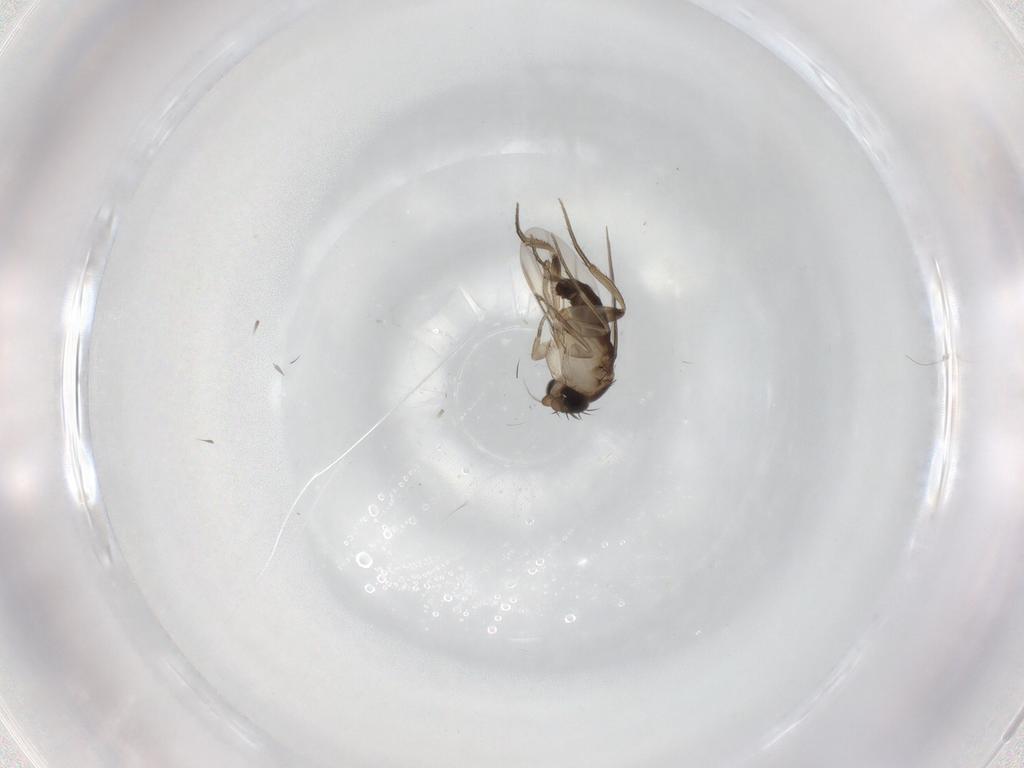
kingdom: Animalia
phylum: Arthropoda
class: Insecta
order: Diptera
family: Phoridae
